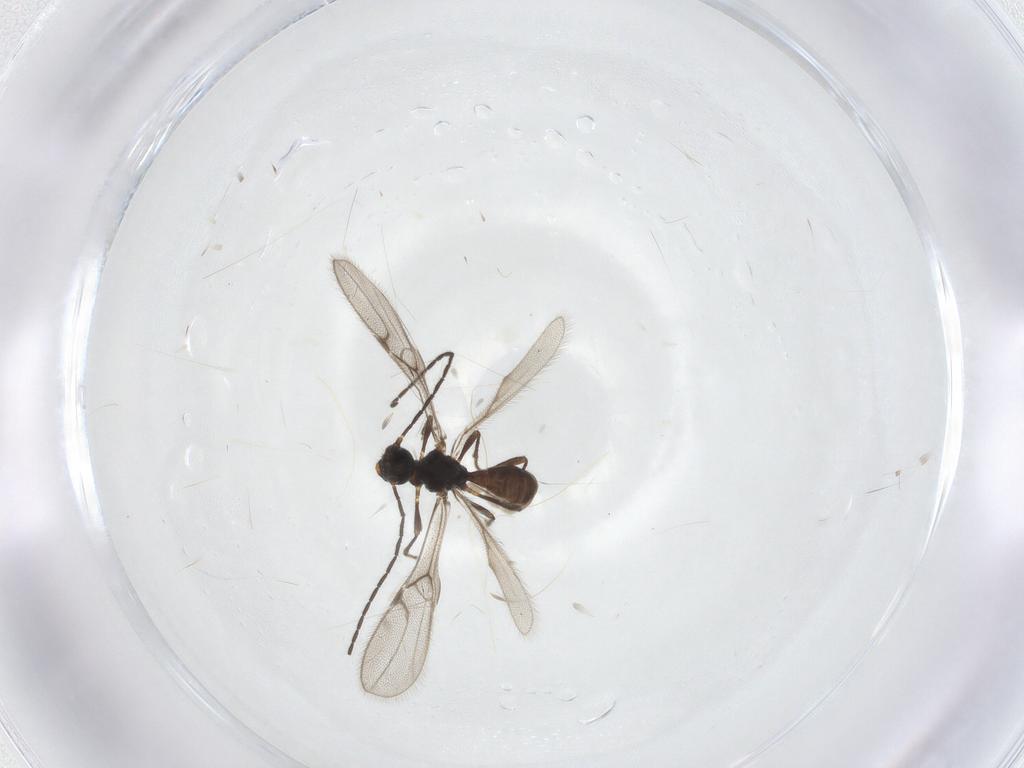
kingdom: Animalia
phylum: Arthropoda
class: Insecta
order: Hymenoptera
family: Braconidae
